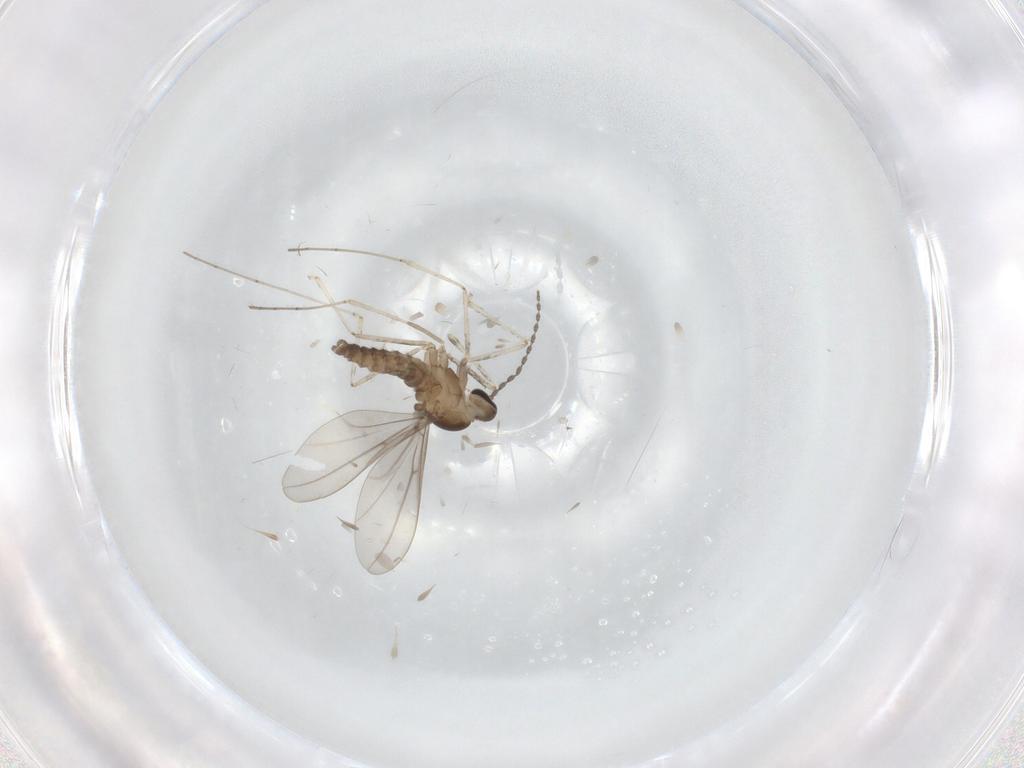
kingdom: Animalia
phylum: Arthropoda
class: Insecta
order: Diptera
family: Cecidomyiidae
